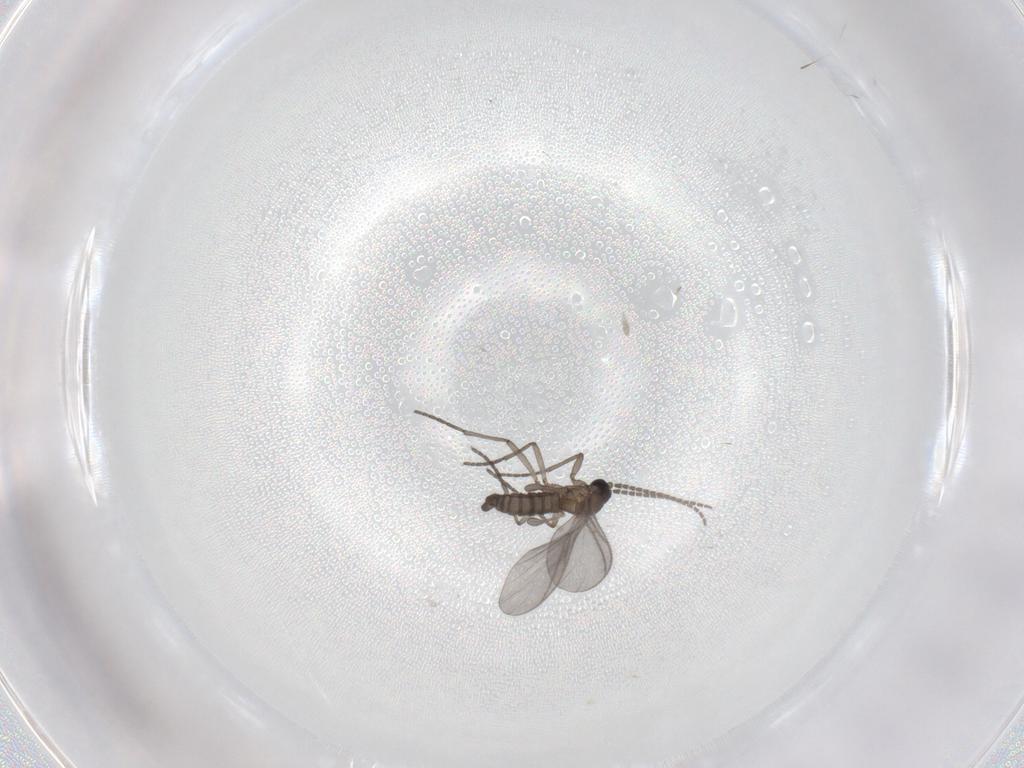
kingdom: Animalia
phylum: Arthropoda
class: Insecta
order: Diptera
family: Sciaridae
